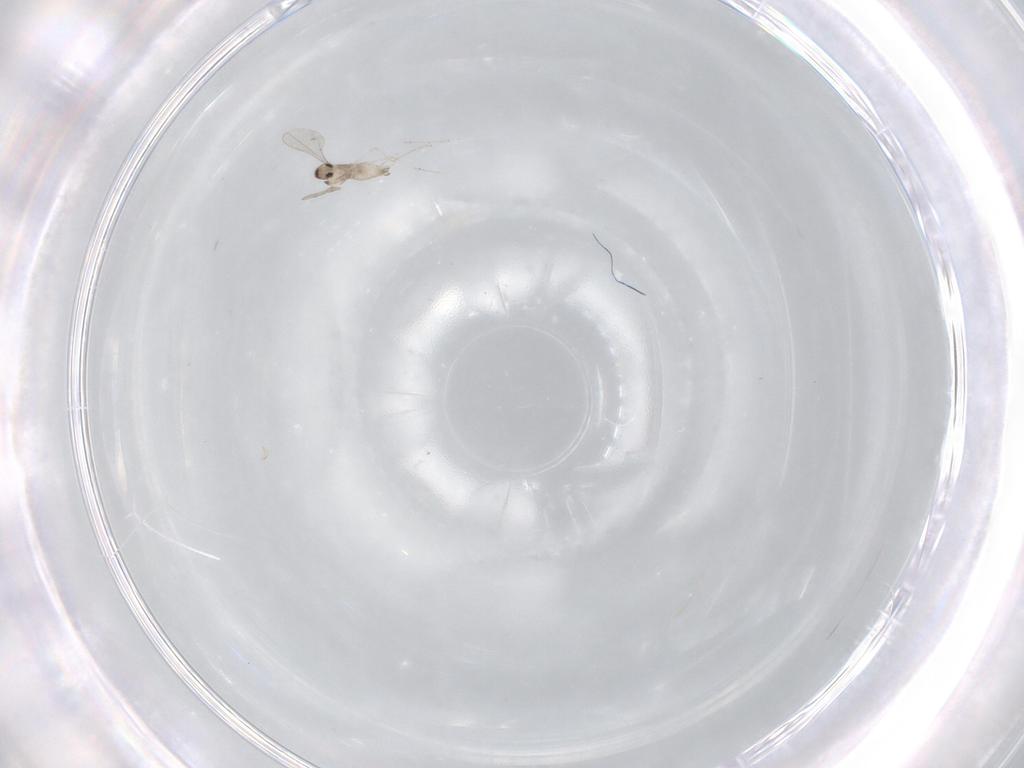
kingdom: Animalia
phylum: Arthropoda
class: Insecta
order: Diptera
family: Cecidomyiidae
